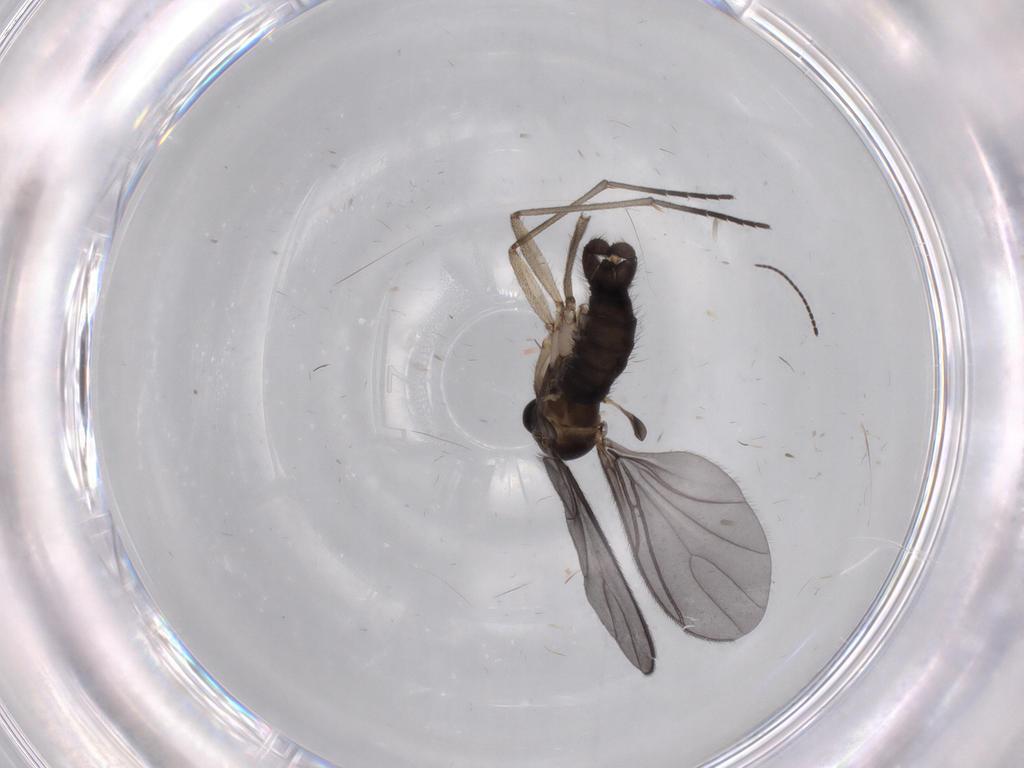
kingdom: Animalia
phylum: Arthropoda
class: Insecta
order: Diptera
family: Sciaridae
